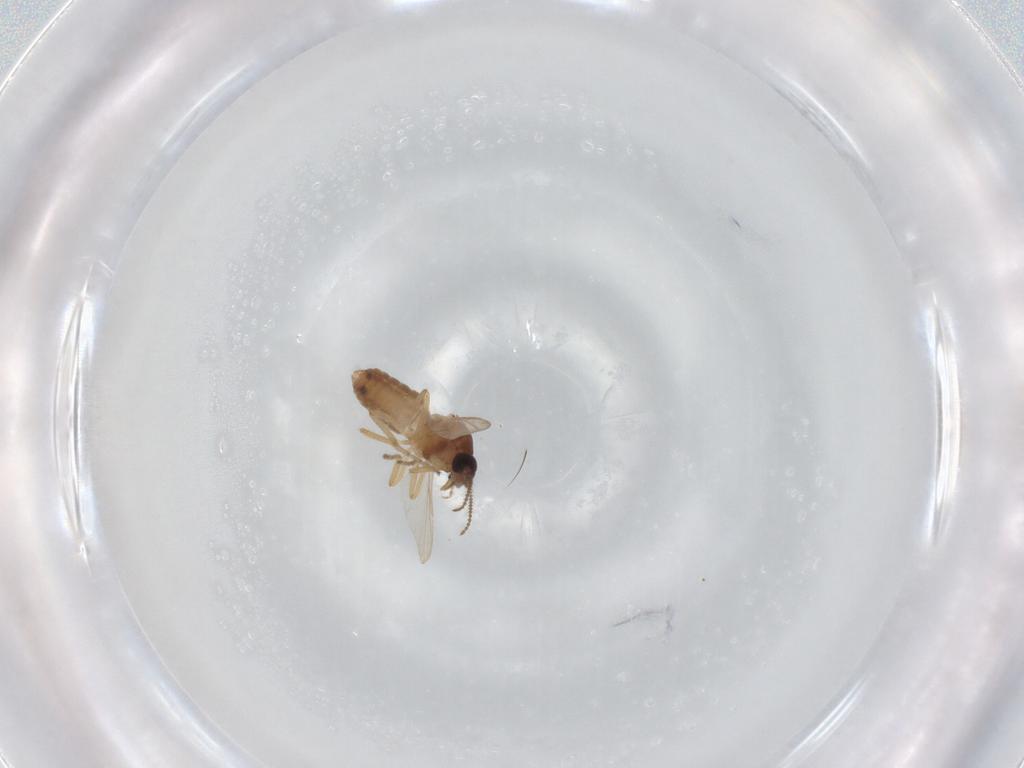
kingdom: Animalia
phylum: Arthropoda
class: Insecta
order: Diptera
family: Ceratopogonidae
